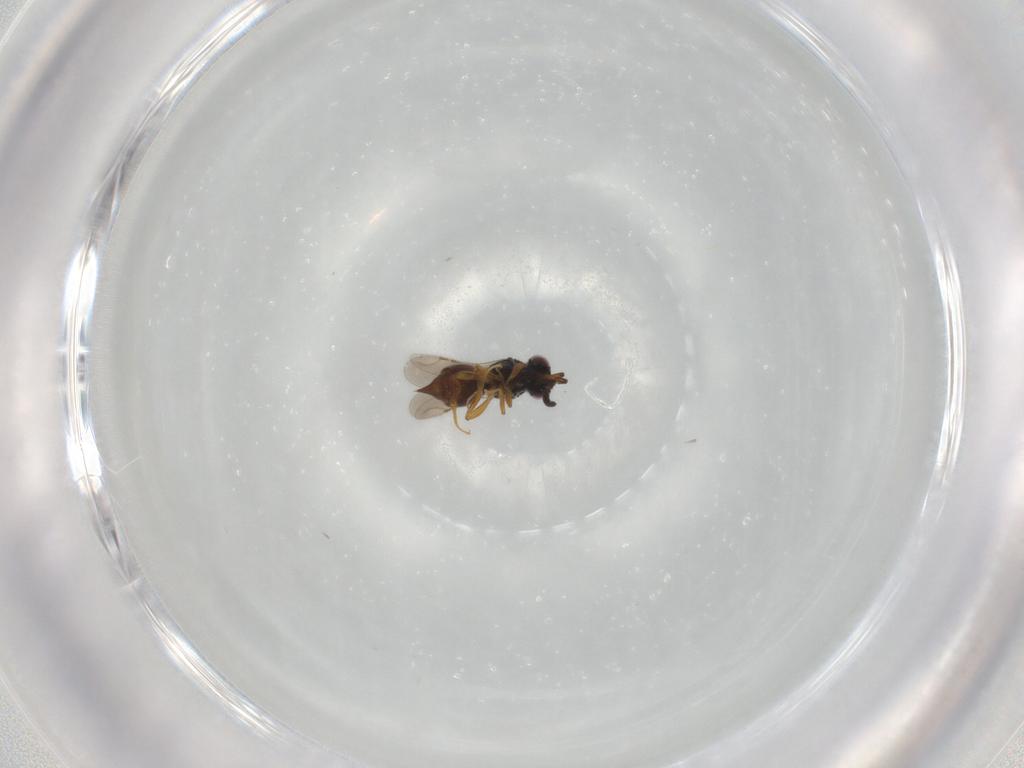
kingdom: Animalia
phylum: Arthropoda
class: Insecta
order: Hymenoptera
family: Ceraphronidae
